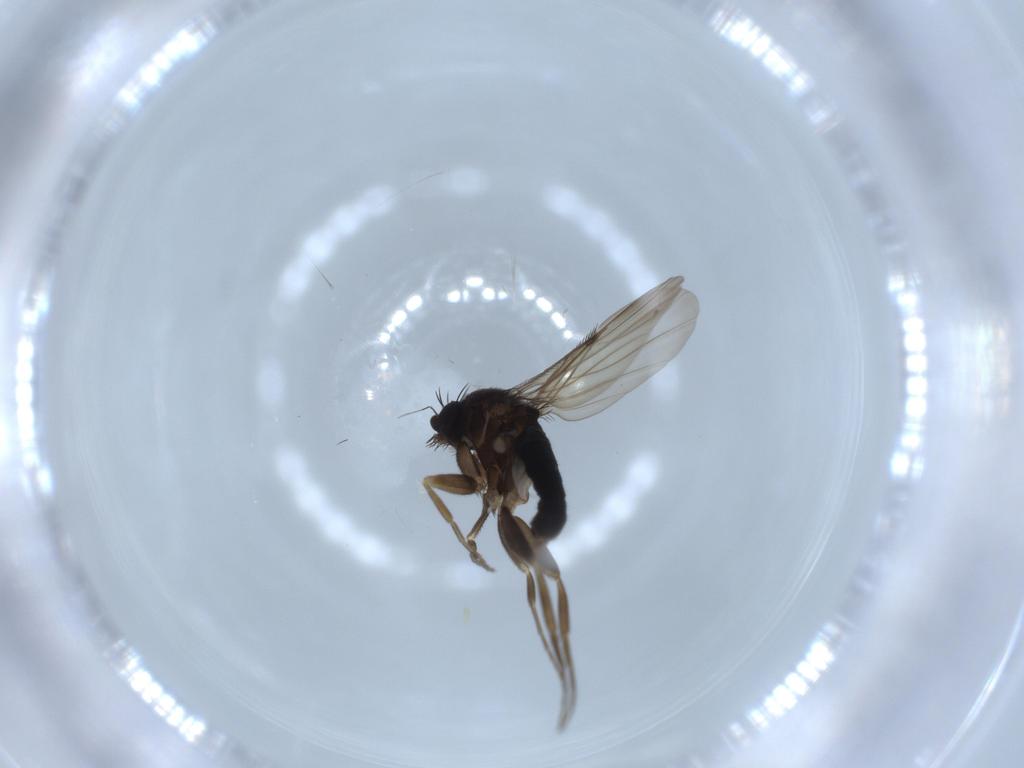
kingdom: Animalia
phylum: Arthropoda
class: Insecta
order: Diptera
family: Phoridae
